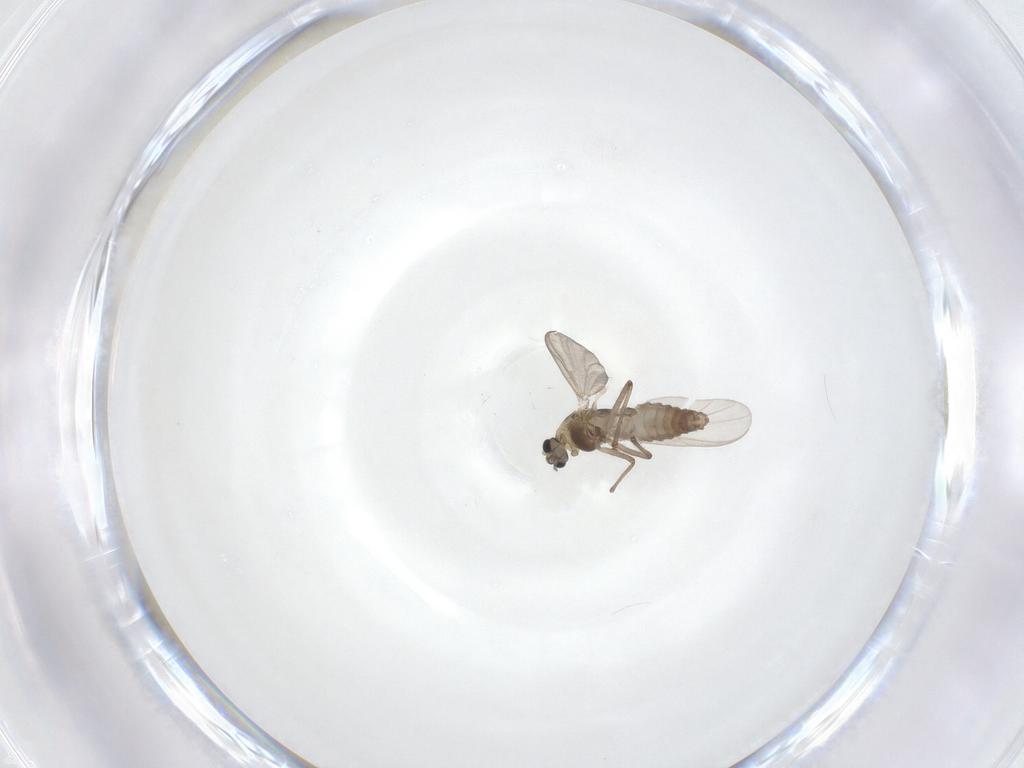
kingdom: Animalia
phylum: Arthropoda
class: Insecta
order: Diptera
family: Chironomidae
